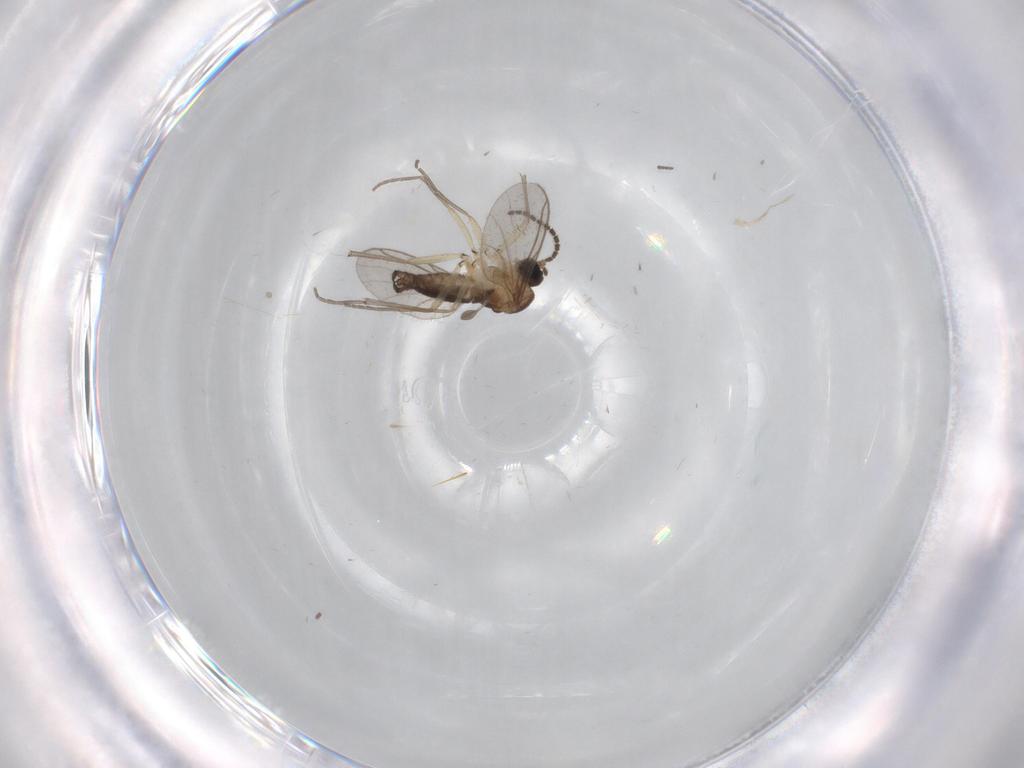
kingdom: Animalia
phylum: Arthropoda
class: Insecta
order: Diptera
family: Sciaridae
